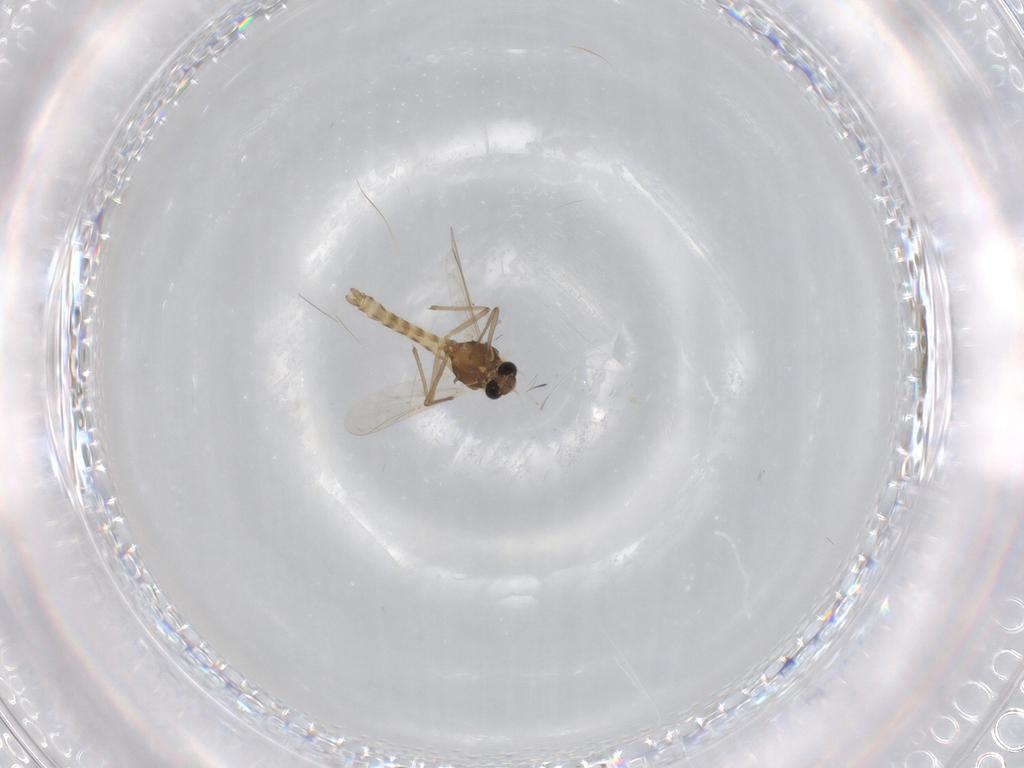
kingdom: Animalia
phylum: Arthropoda
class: Insecta
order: Diptera
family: Chironomidae
